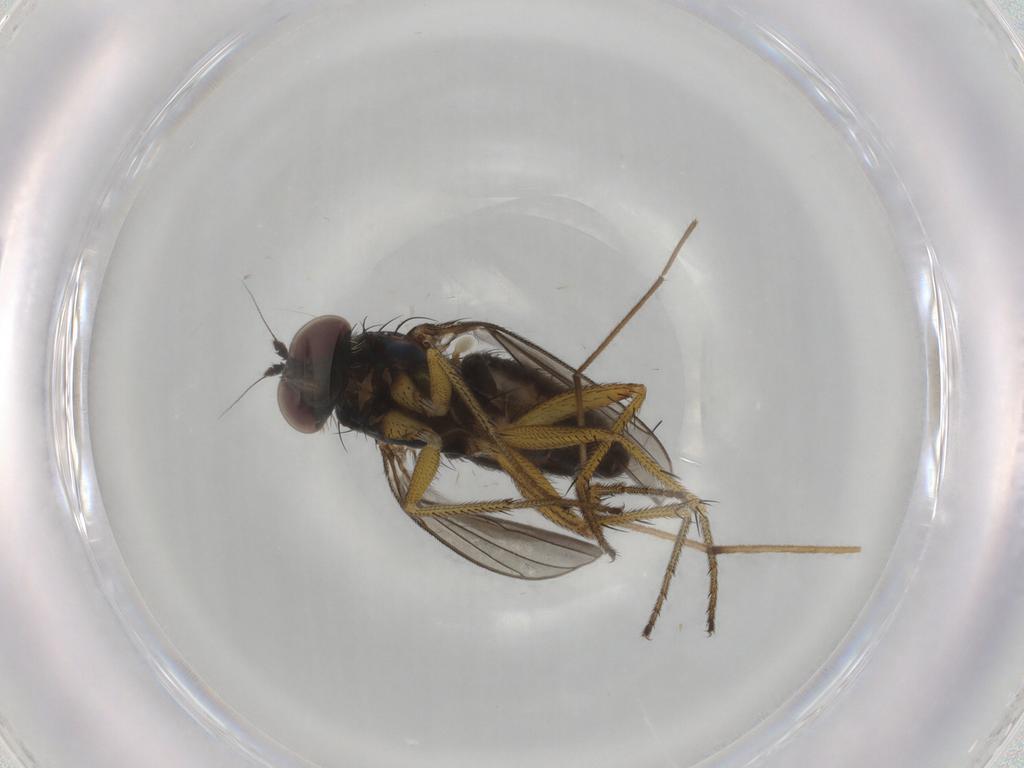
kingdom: Animalia
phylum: Arthropoda
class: Insecta
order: Diptera
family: Dolichopodidae
